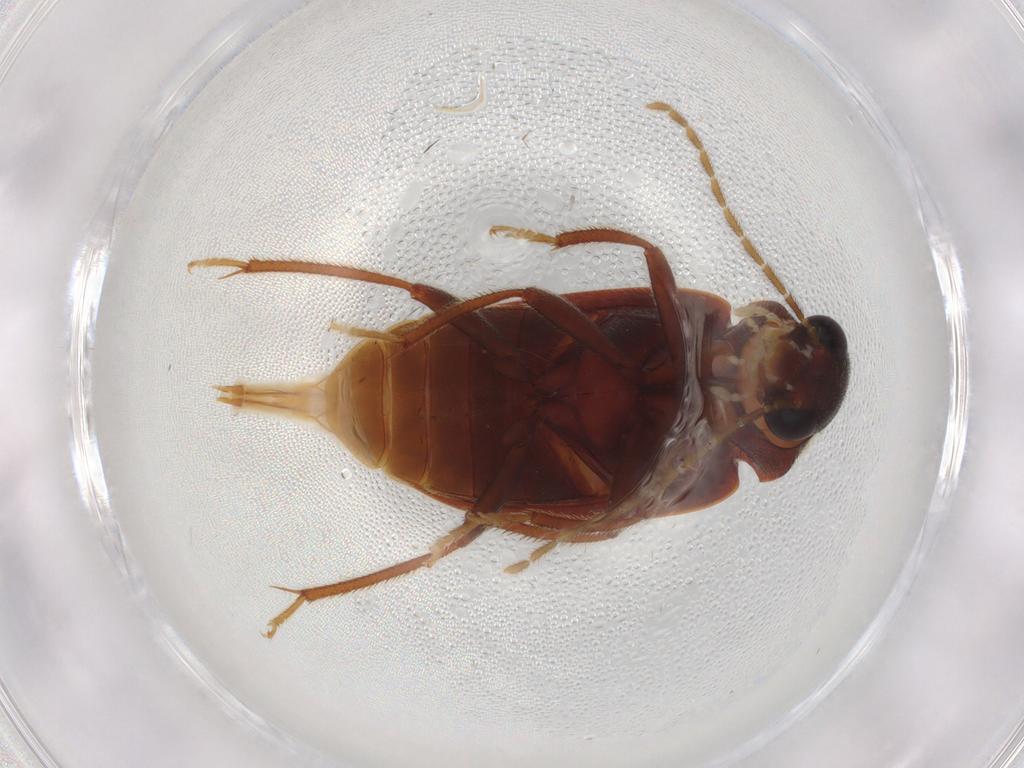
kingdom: Animalia
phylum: Arthropoda
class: Insecta
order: Coleoptera
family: Ptilodactylidae
